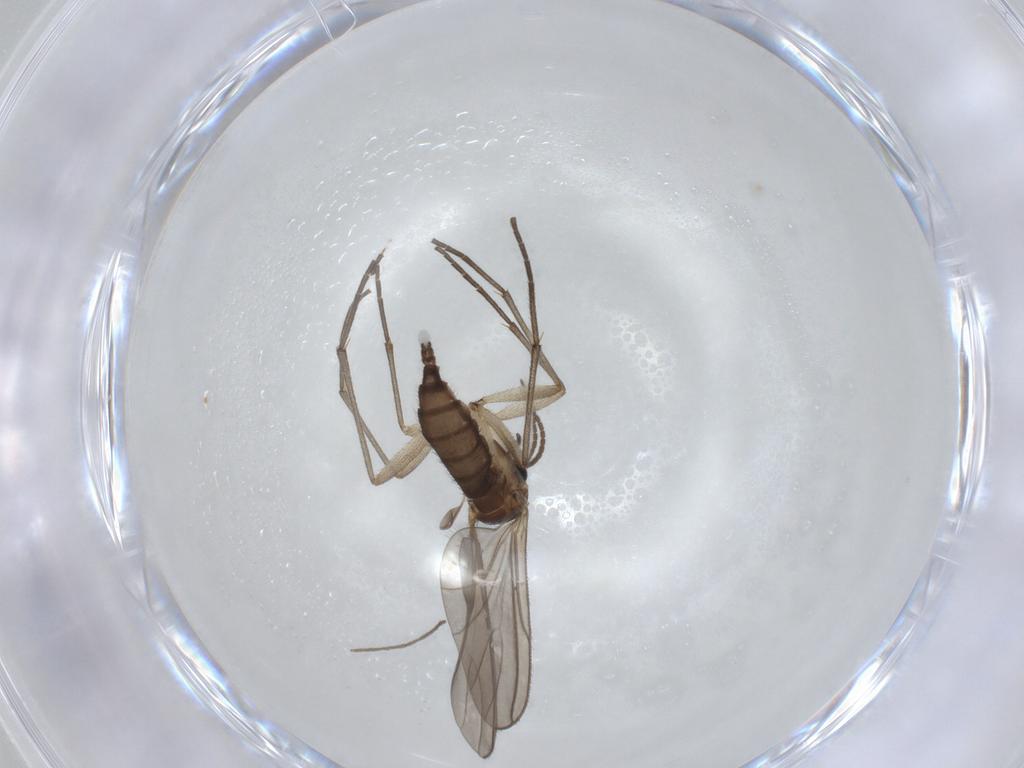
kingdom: Animalia
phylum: Arthropoda
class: Insecta
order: Diptera
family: Sciaridae
